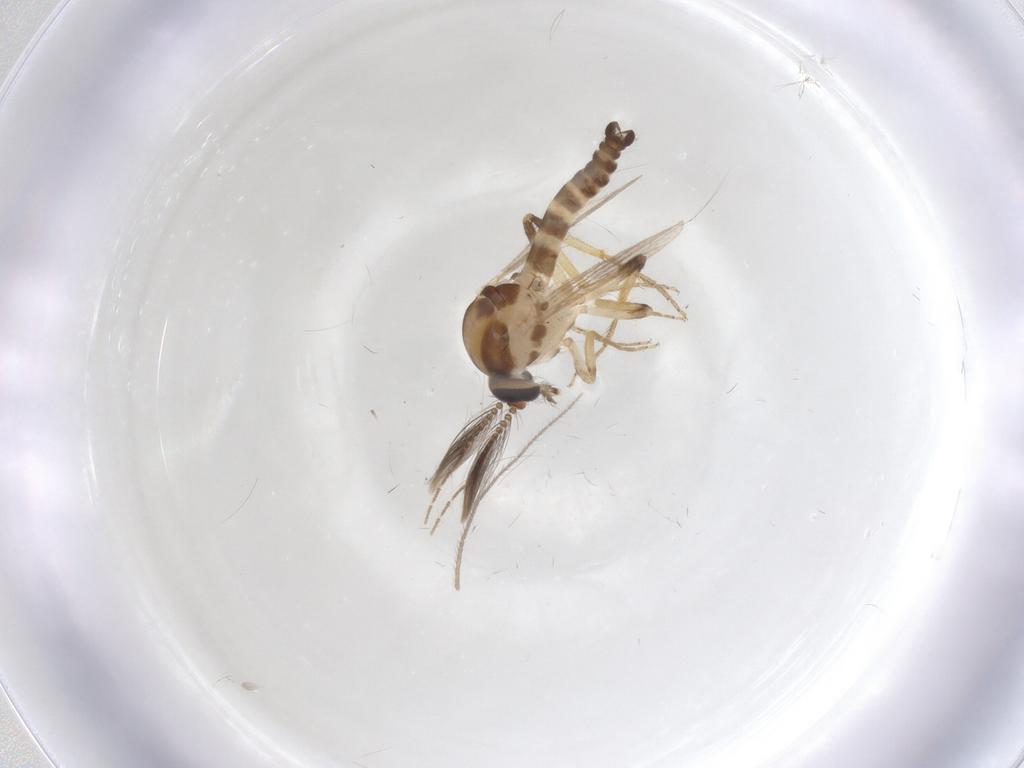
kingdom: Animalia
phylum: Arthropoda
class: Insecta
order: Diptera
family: Ceratopogonidae
